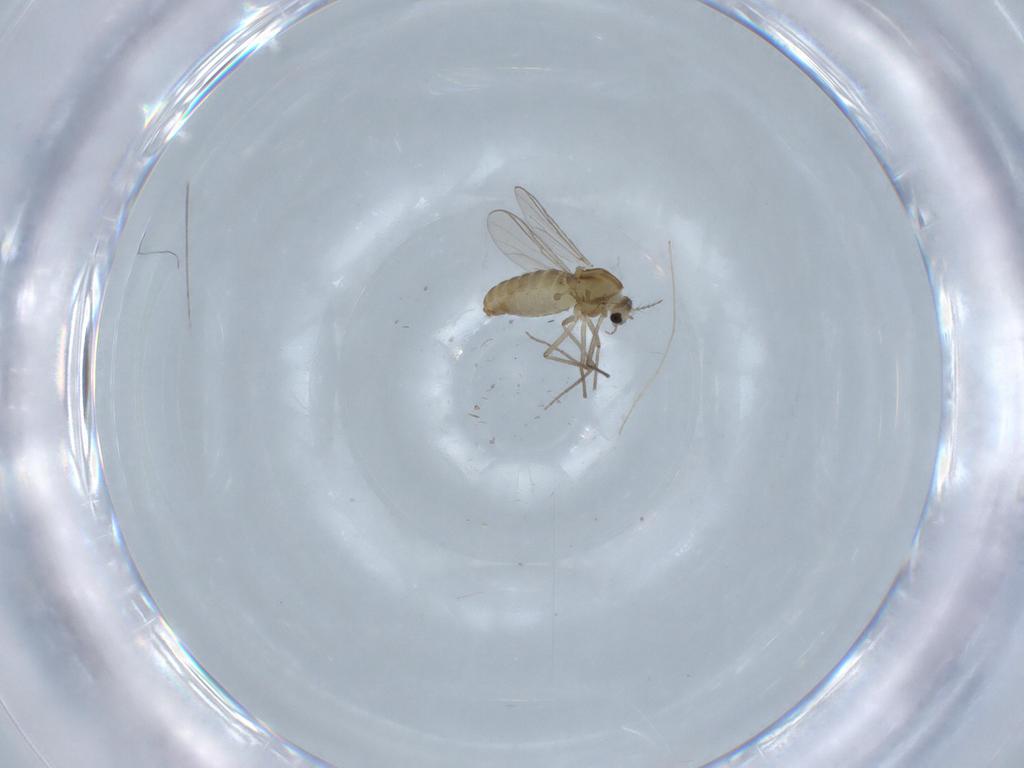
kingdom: Animalia
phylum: Arthropoda
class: Insecta
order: Diptera
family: Chironomidae
